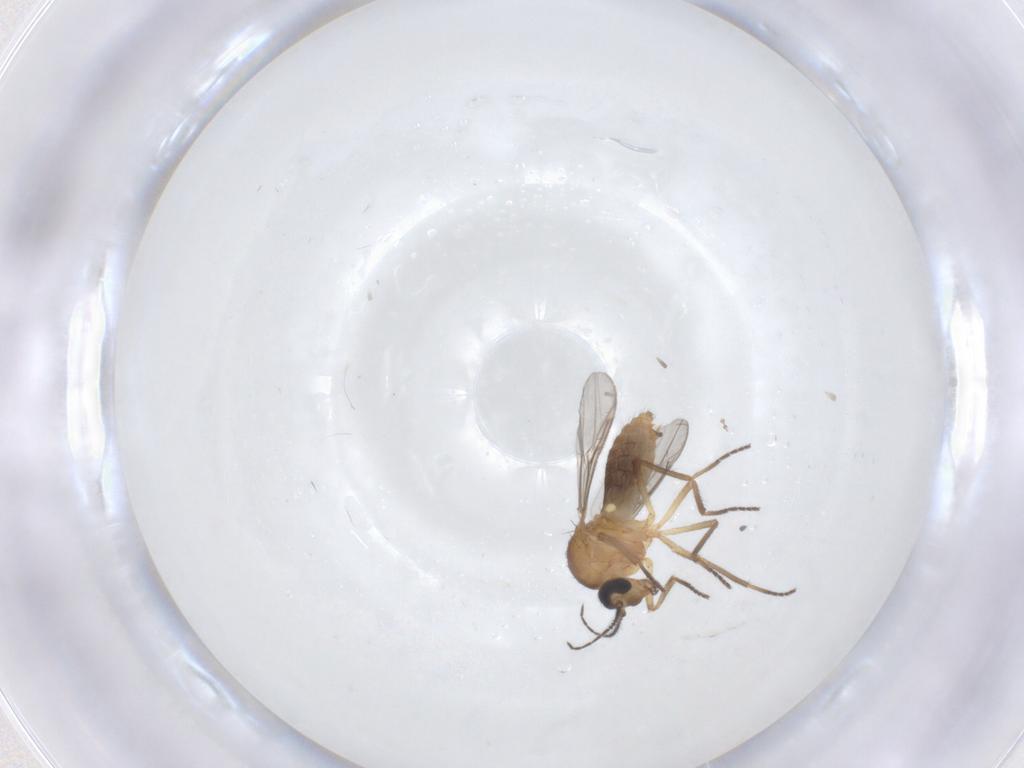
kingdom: Animalia
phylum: Arthropoda
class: Insecta
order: Diptera
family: Ceratopogonidae
